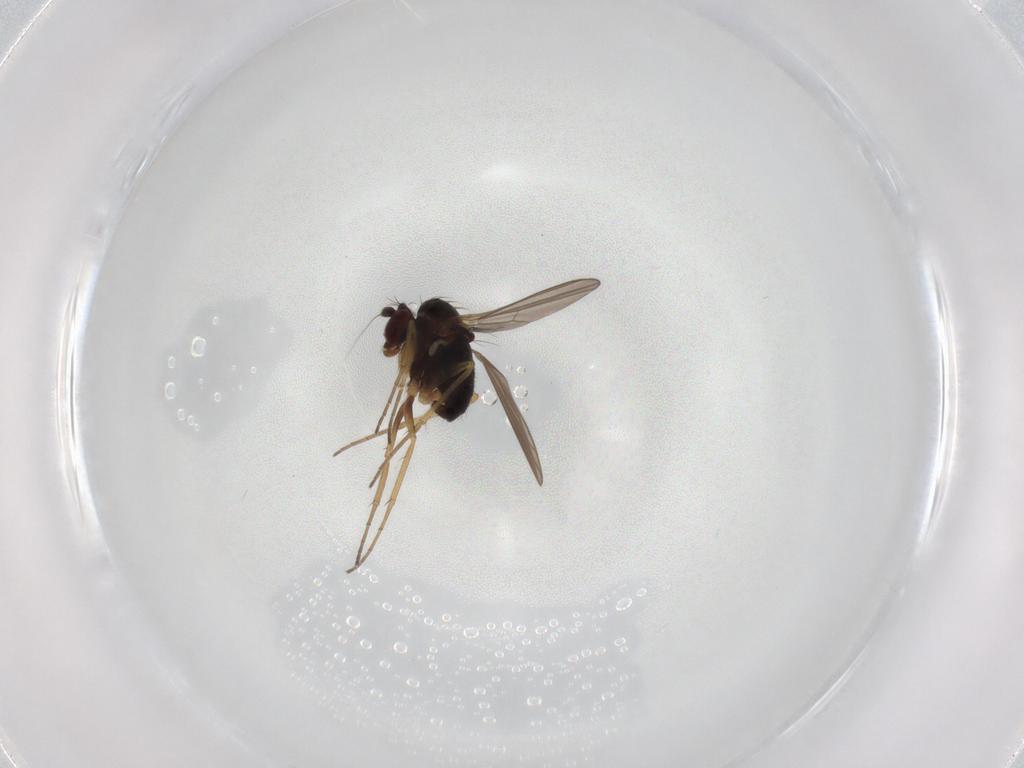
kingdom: Animalia
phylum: Arthropoda
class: Insecta
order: Diptera
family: Dolichopodidae
